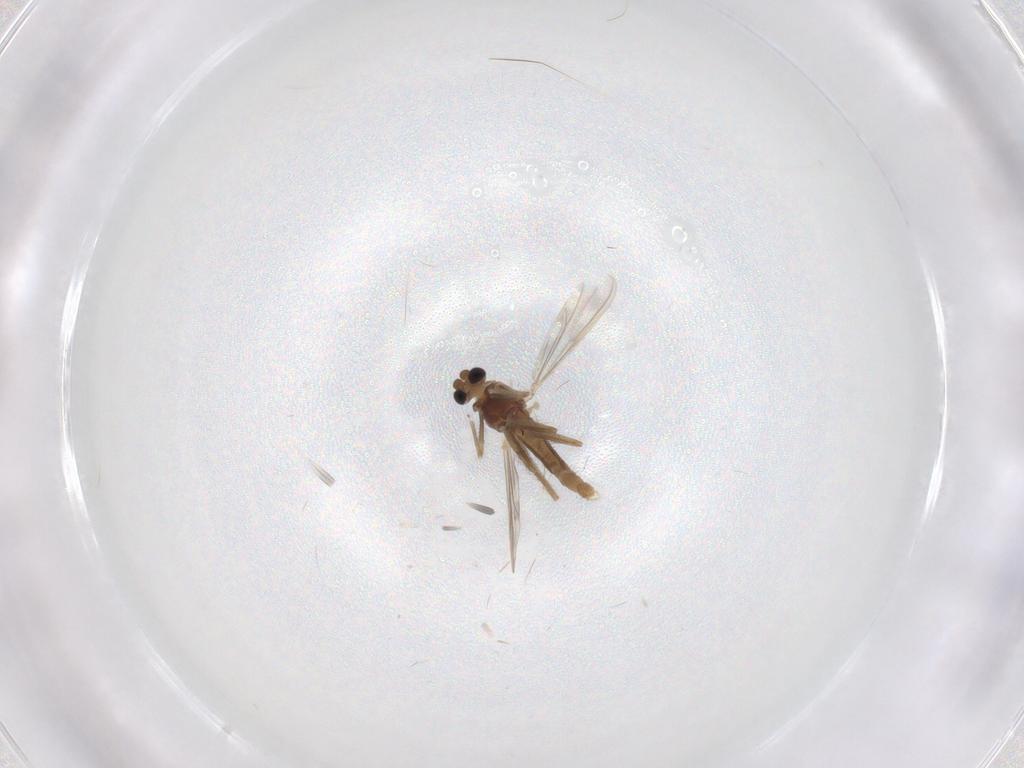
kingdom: Animalia
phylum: Arthropoda
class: Insecta
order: Diptera
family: Chironomidae
